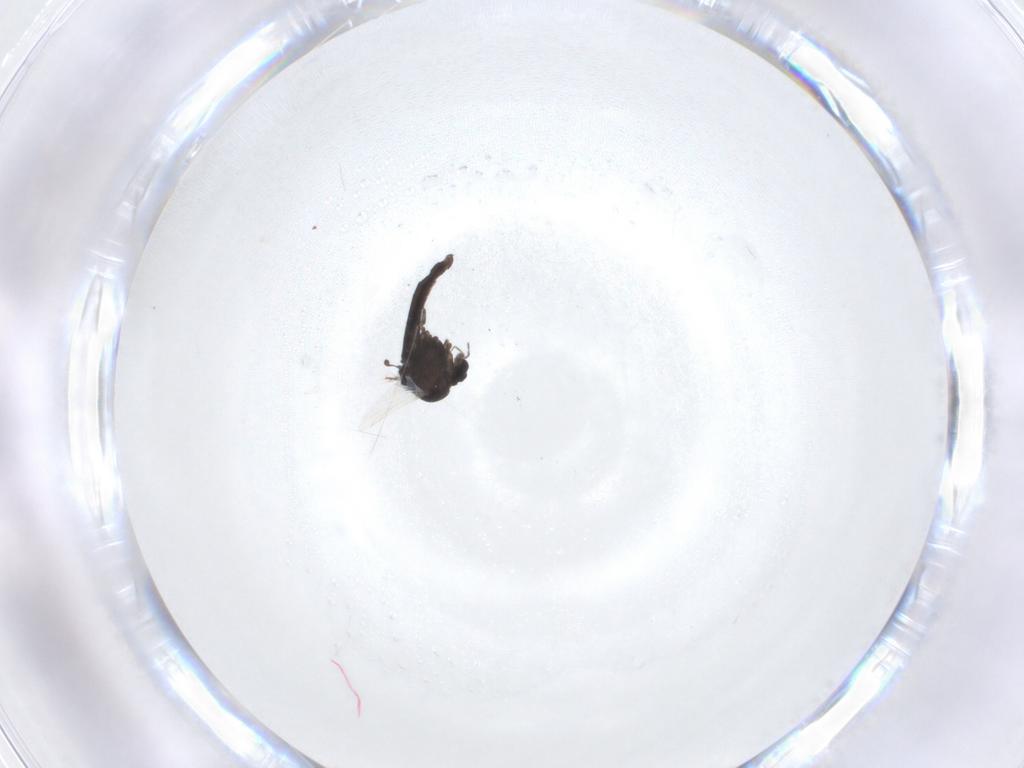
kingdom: Animalia
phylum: Arthropoda
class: Insecta
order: Diptera
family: Chironomidae
